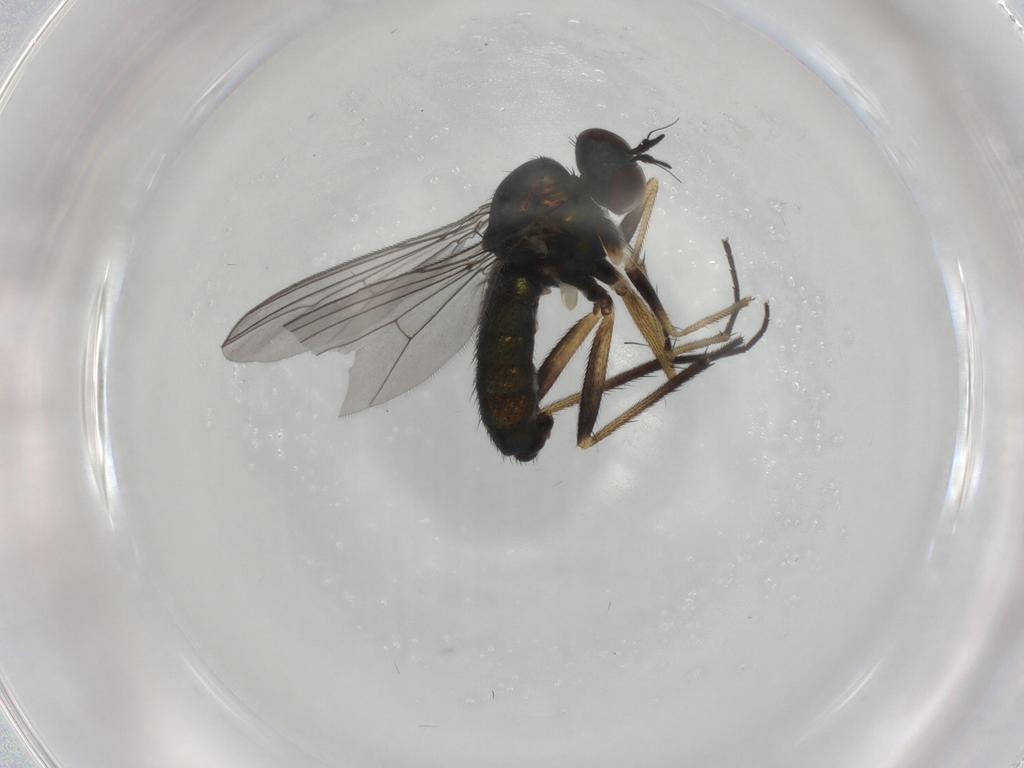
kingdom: Animalia
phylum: Arthropoda
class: Insecta
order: Diptera
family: Dolichopodidae
